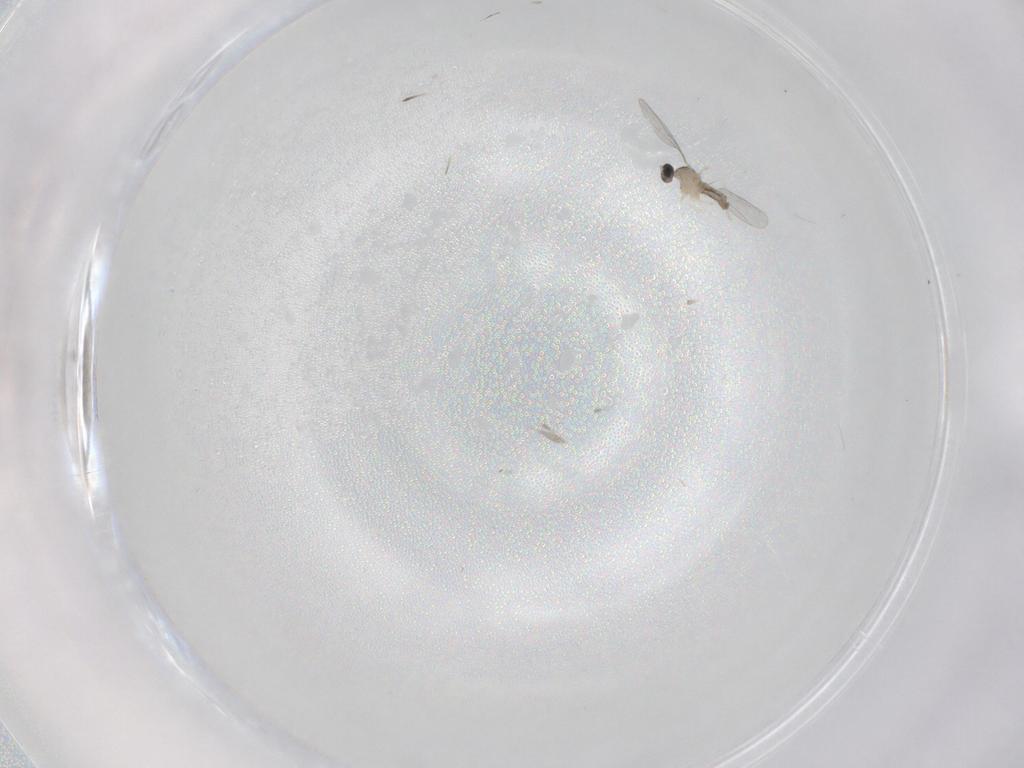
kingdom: Animalia
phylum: Arthropoda
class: Insecta
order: Diptera
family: Cecidomyiidae
